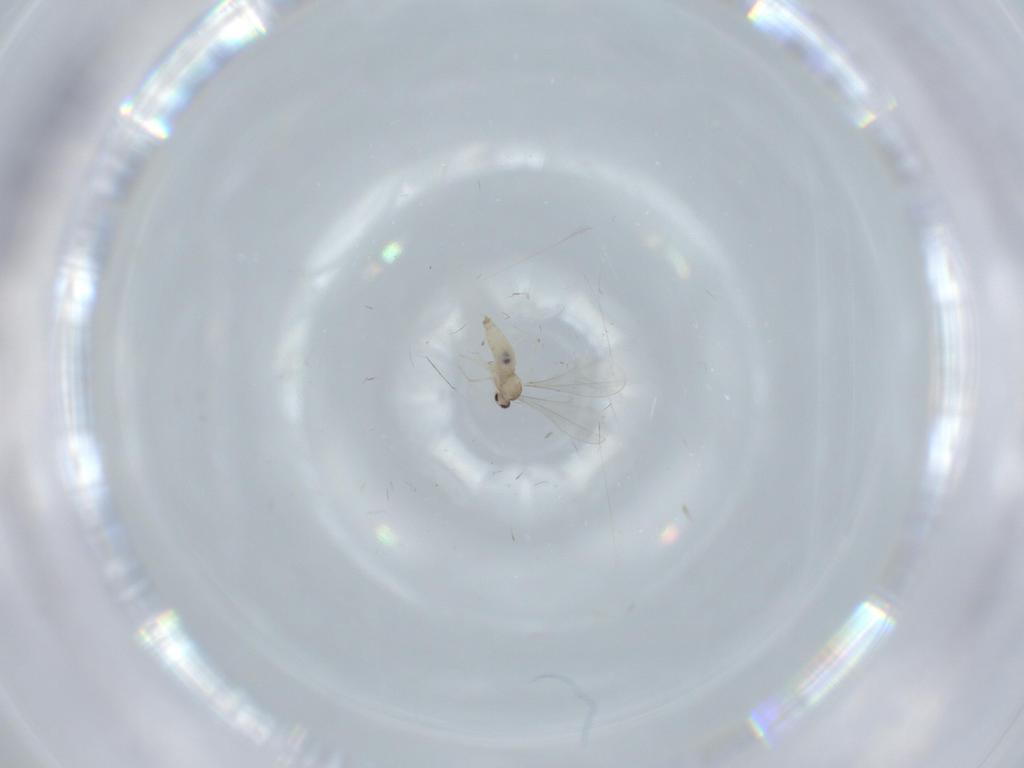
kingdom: Animalia
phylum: Arthropoda
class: Insecta
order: Diptera
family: Cecidomyiidae
